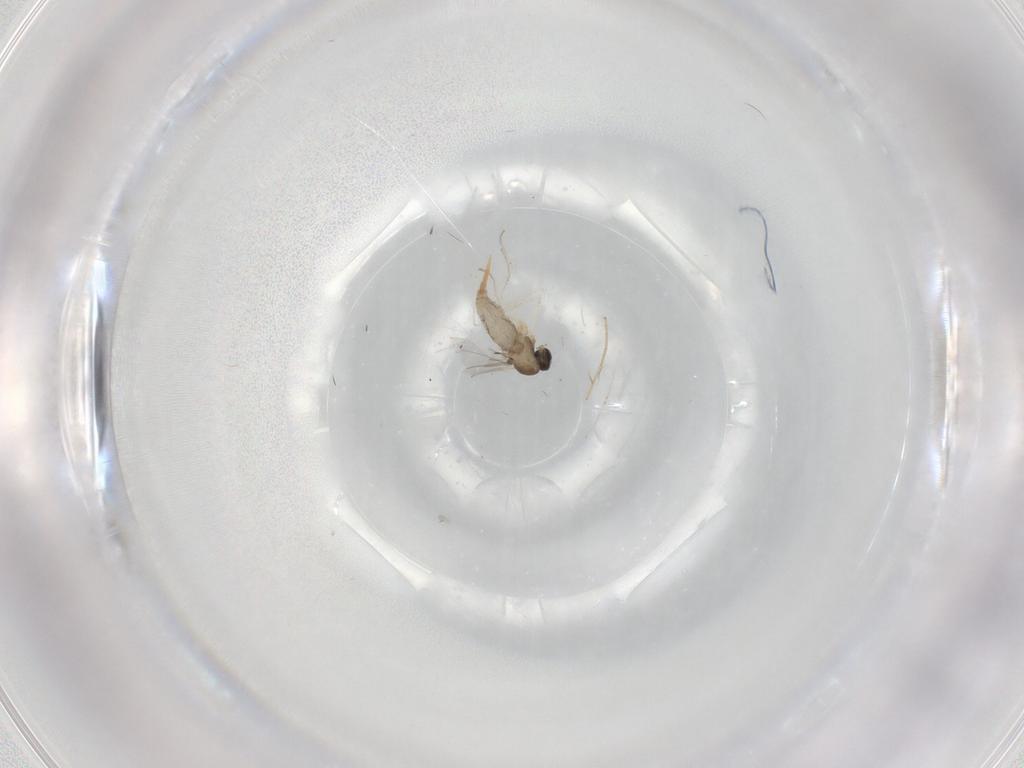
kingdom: Animalia
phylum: Arthropoda
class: Insecta
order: Diptera
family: Cecidomyiidae
